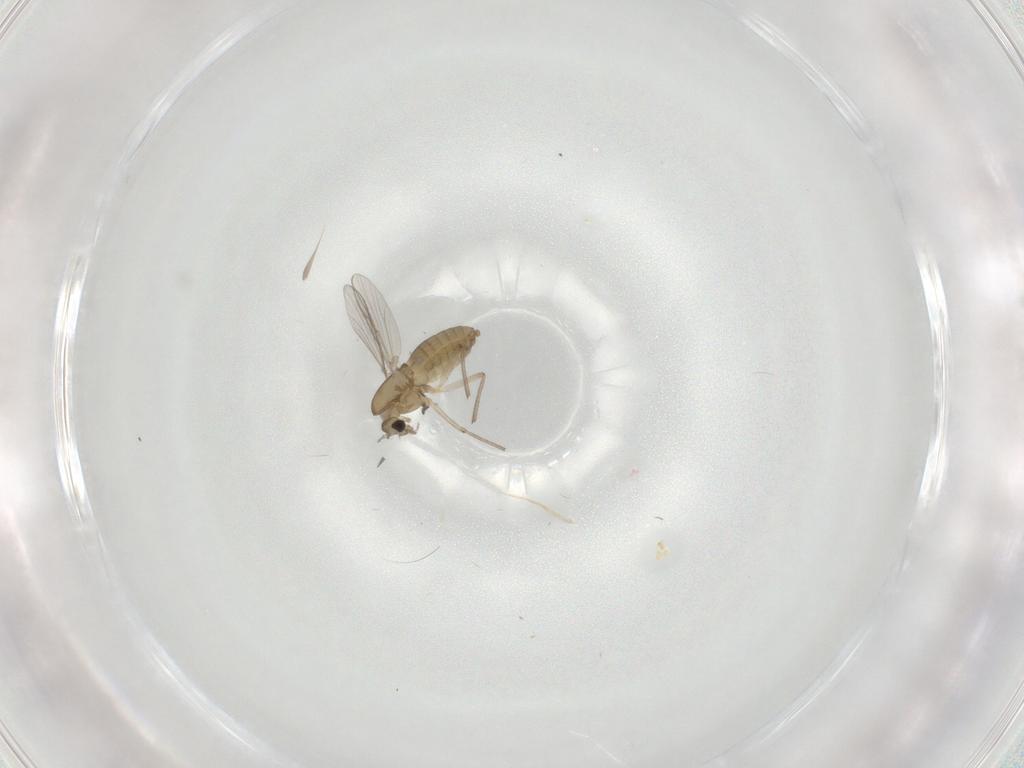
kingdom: Animalia
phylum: Arthropoda
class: Insecta
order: Diptera
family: Chironomidae
